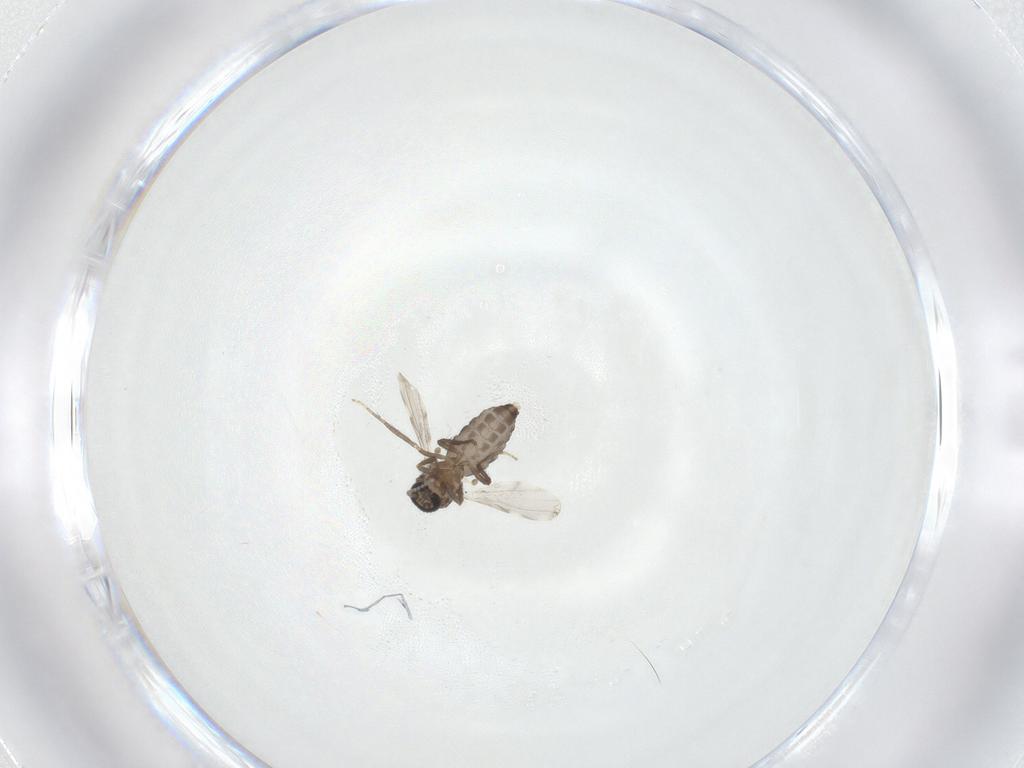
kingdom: Animalia
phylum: Arthropoda
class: Insecta
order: Diptera
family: Ceratopogonidae
